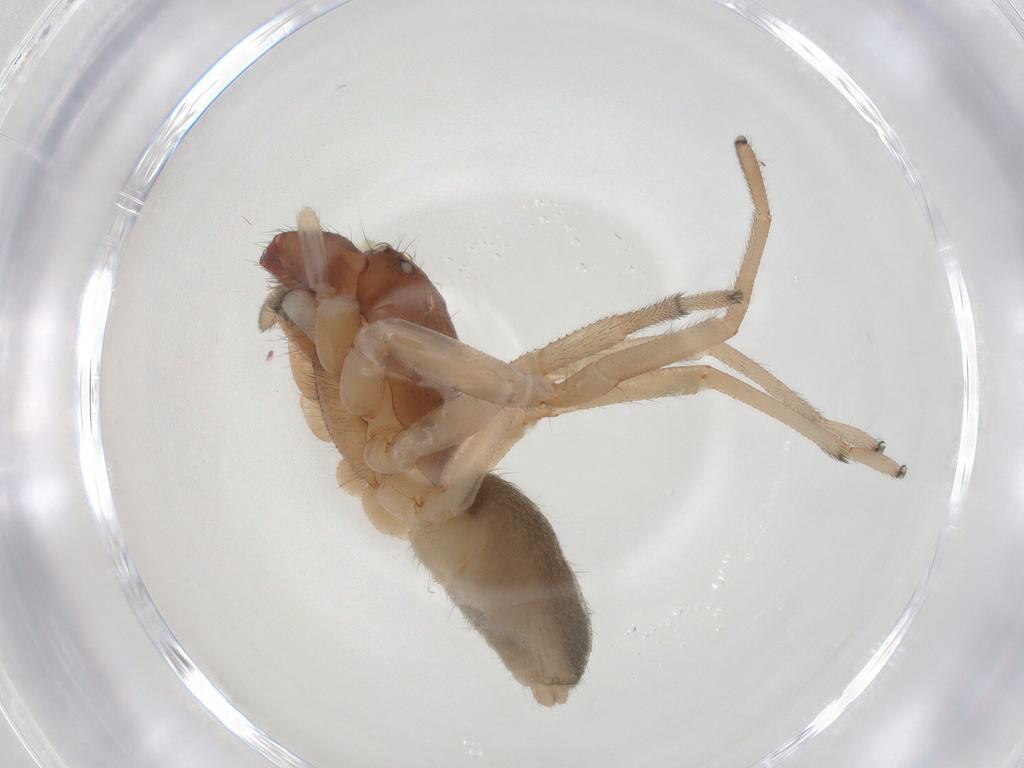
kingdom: Animalia
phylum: Arthropoda
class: Arachnida
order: Araneae
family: Trachelidae
